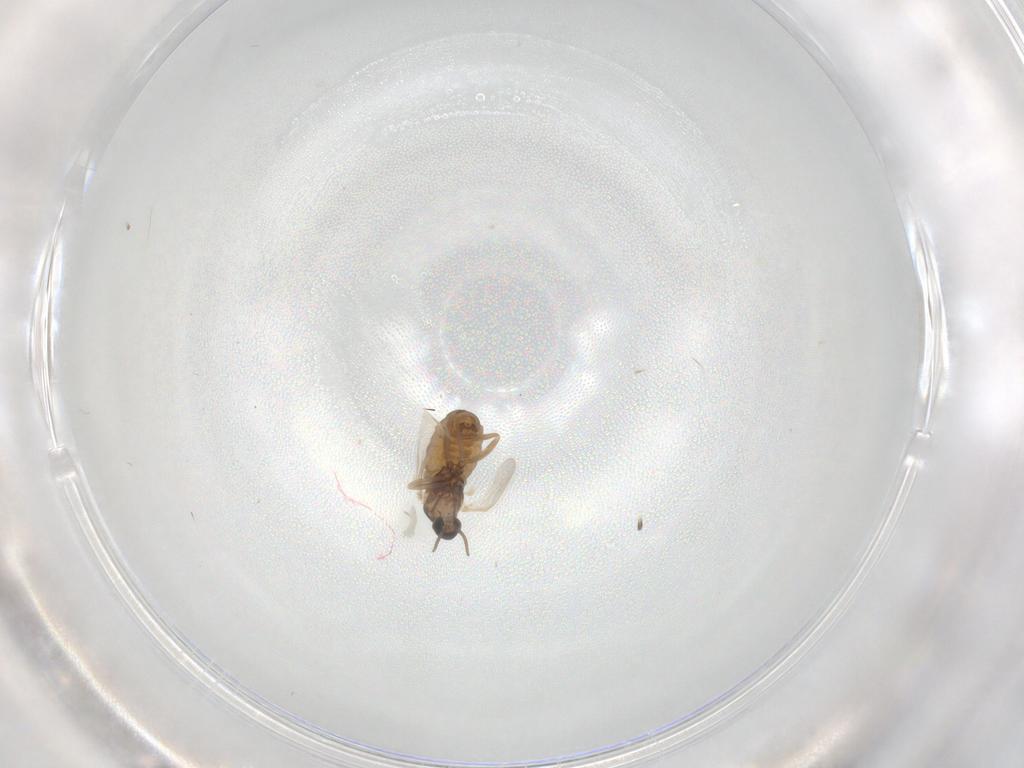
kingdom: Animalia
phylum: Arthropoda
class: Insecta
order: Diptera
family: Cecidomyiidae
